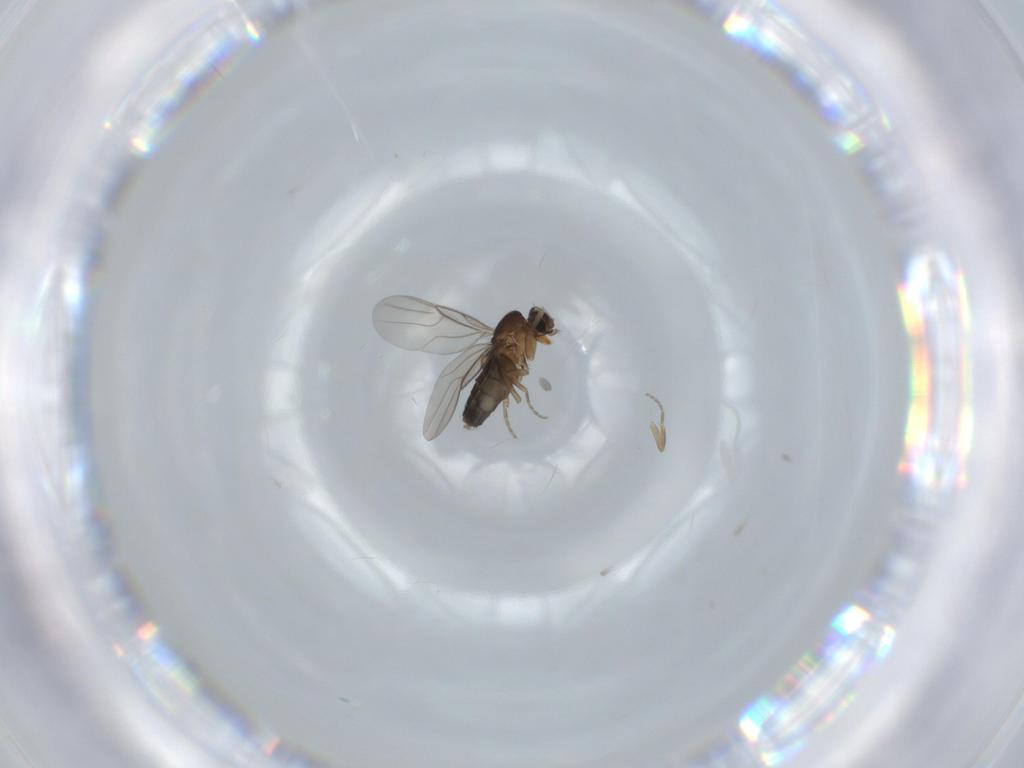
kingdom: Animalia
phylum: Arthropoda
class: Insecta
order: Diptera
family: Phoridae
